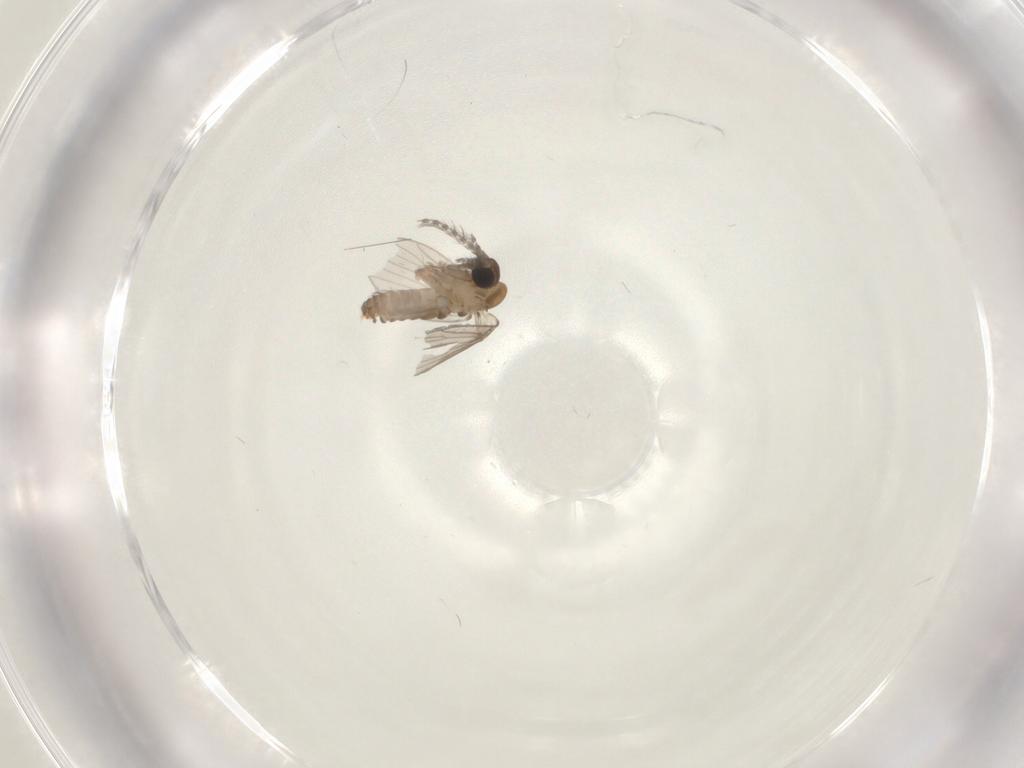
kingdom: Animalia
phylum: Arthropoda
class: Insecta
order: Diptera
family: Psychodidae
